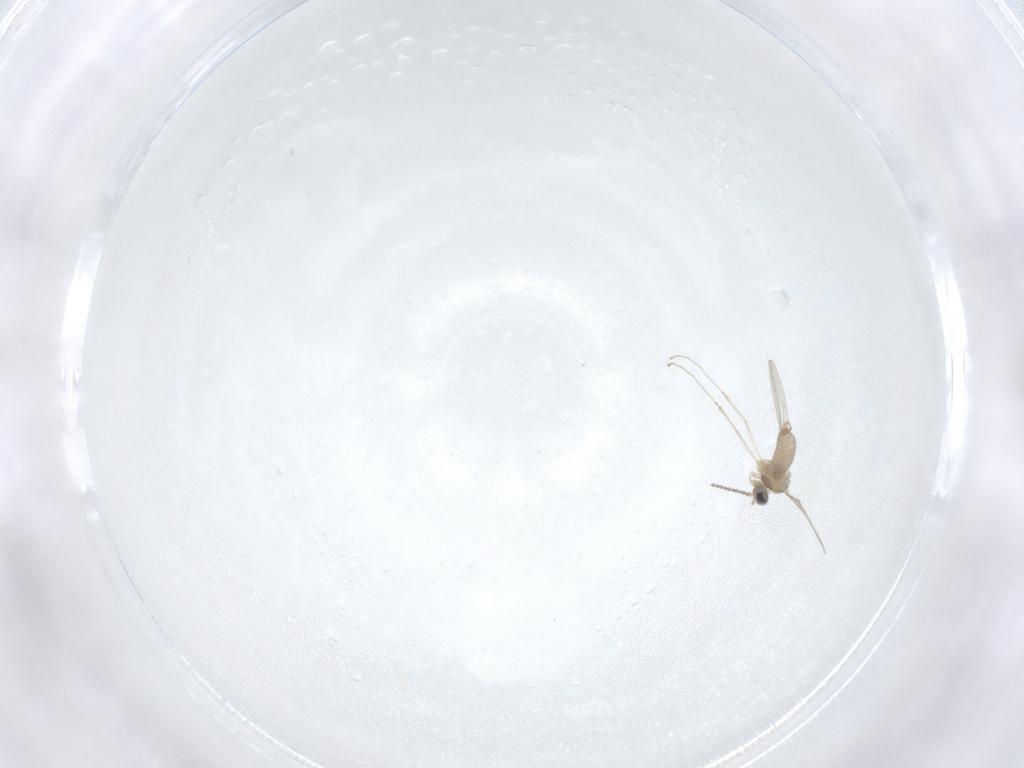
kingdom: Animalia
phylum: Arthropoda
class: Insecta
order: Diptera
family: Cecidomyiidae
